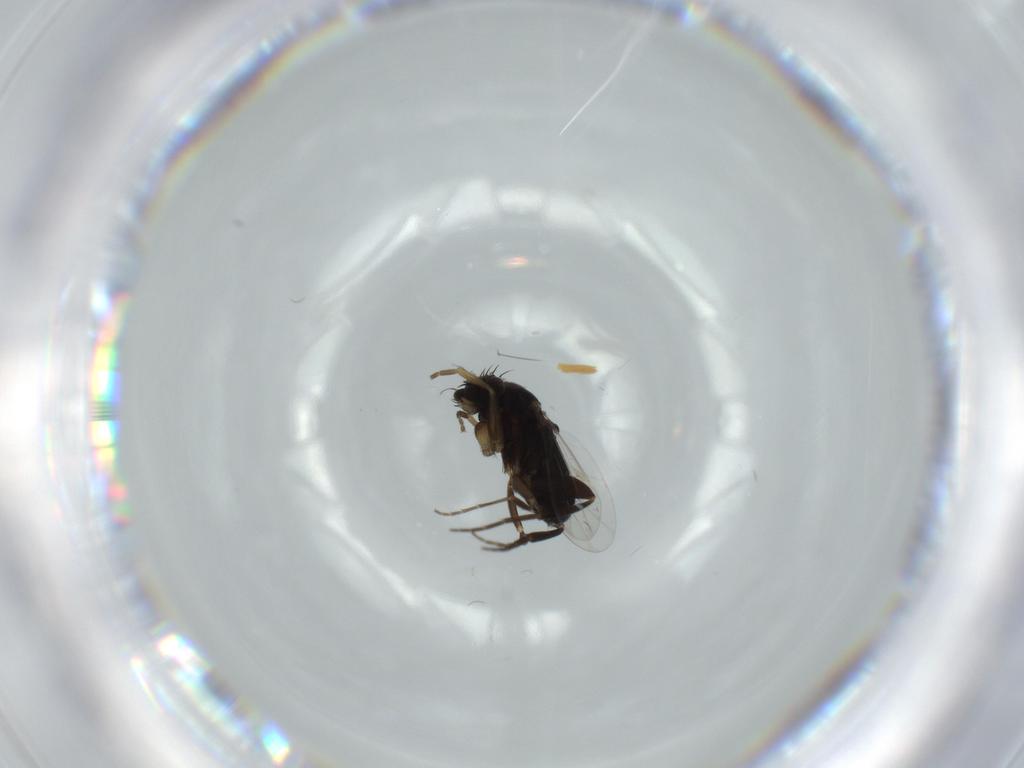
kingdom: Animalia
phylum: Arthropoda
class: Insecta
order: Diptera
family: Phoridae
